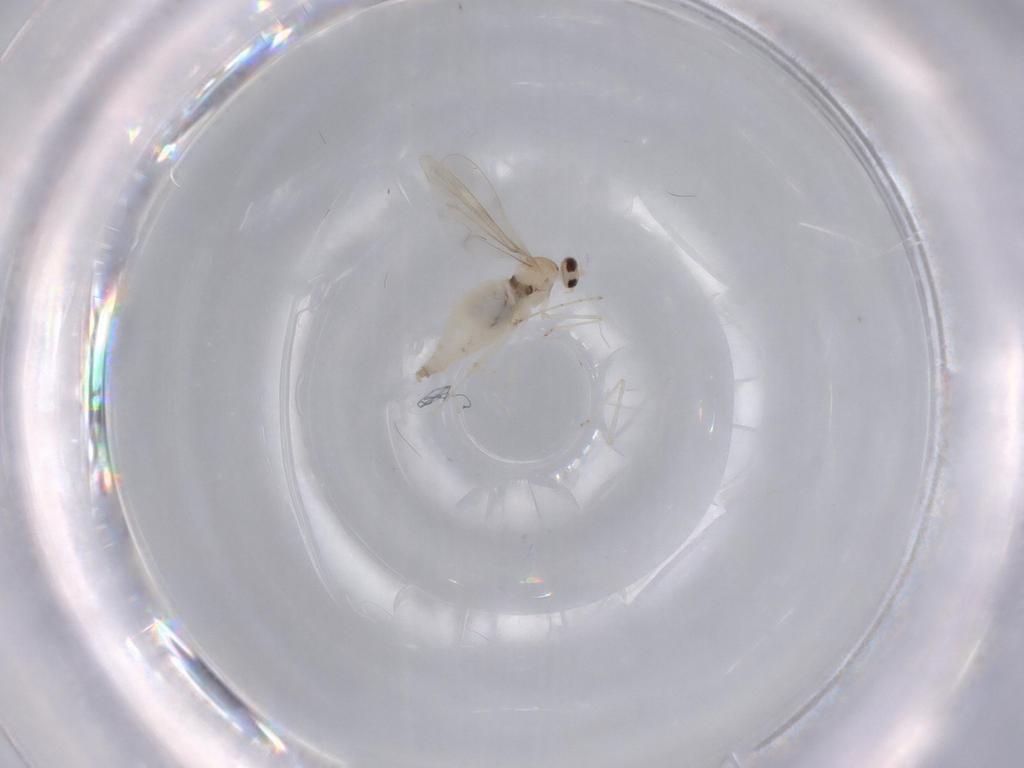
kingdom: Animalia
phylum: Arthropoda
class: Insecta
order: Diptera
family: Cecidomyiidae
